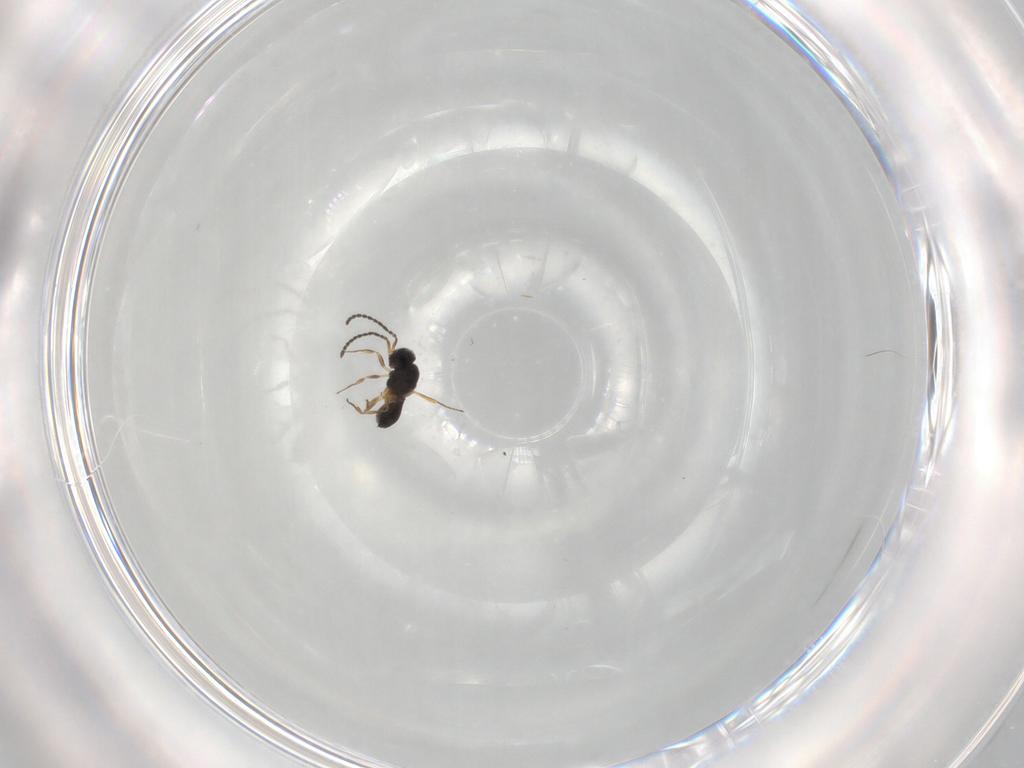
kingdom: Animalia
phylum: Arthropoda
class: Insecta
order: Hymenoptera
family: Scelionidae
